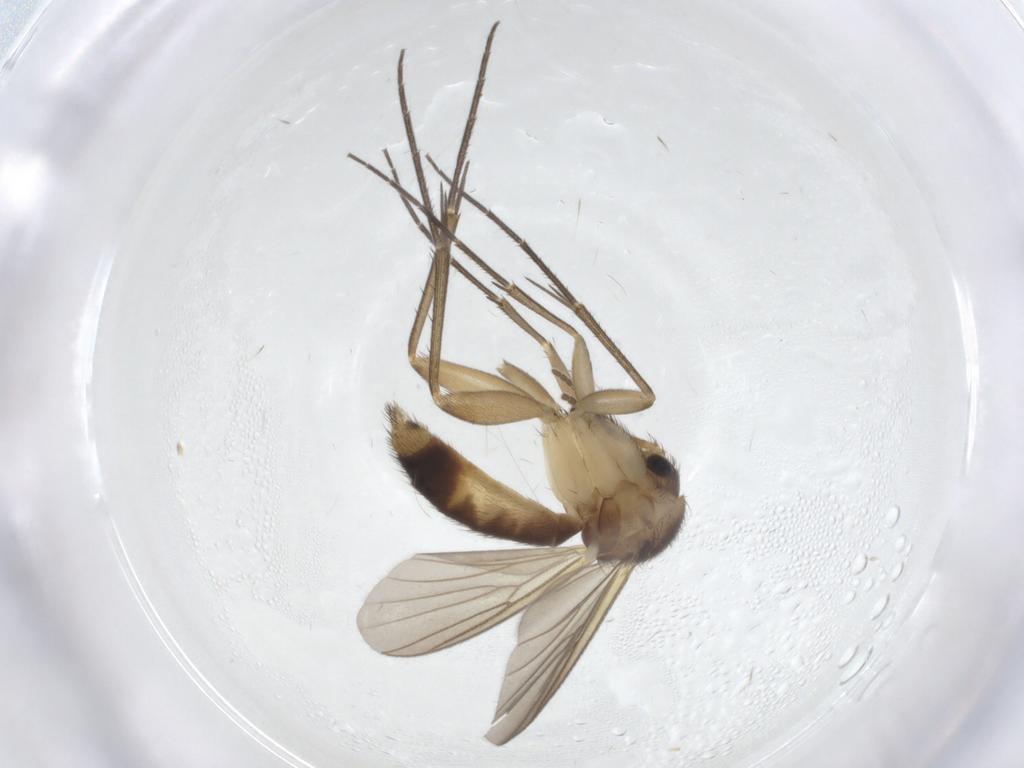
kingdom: Animalia
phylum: Arthropoda
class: Insecta
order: Diptera
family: Mycetophilidae
